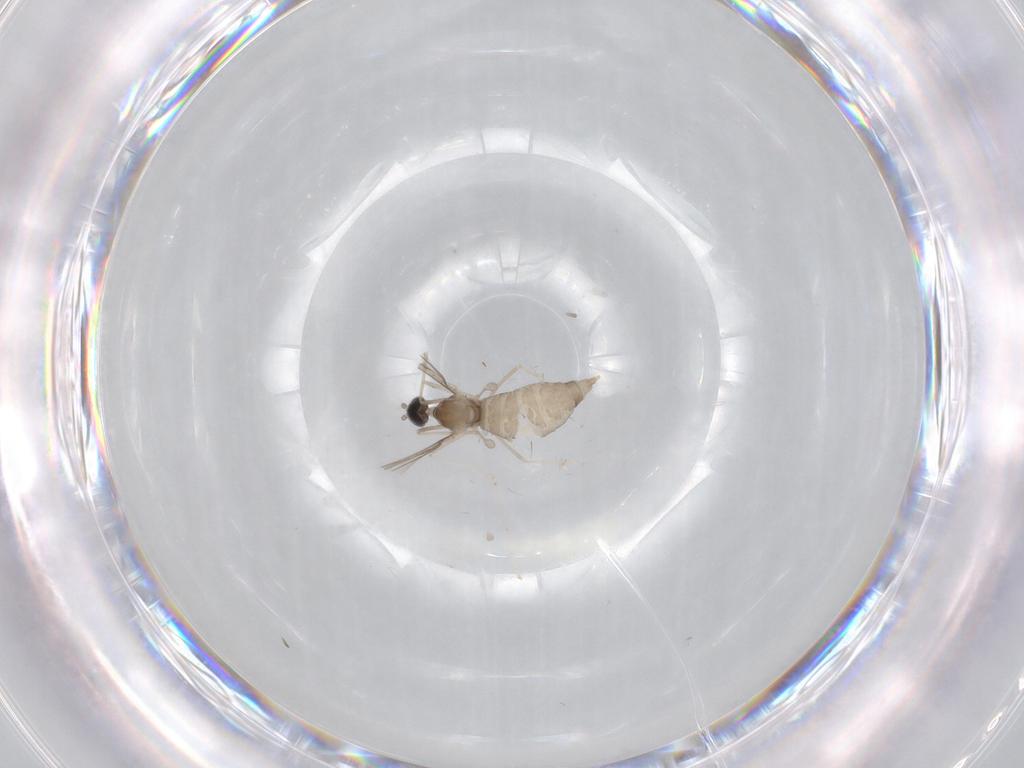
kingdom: Animalia
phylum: Arthropoda
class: Insecta
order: Diptera
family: Cecidomyiidae
